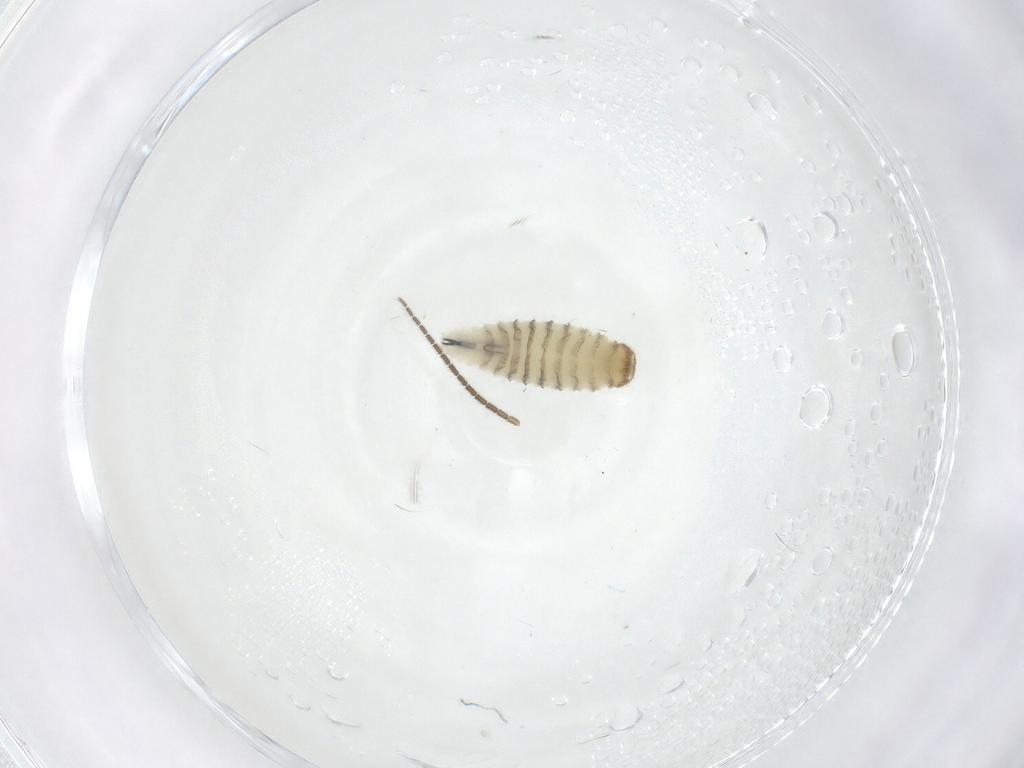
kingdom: Animalia
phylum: Arthropoda
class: Insecta
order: Diptera
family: Sarcophagidae
